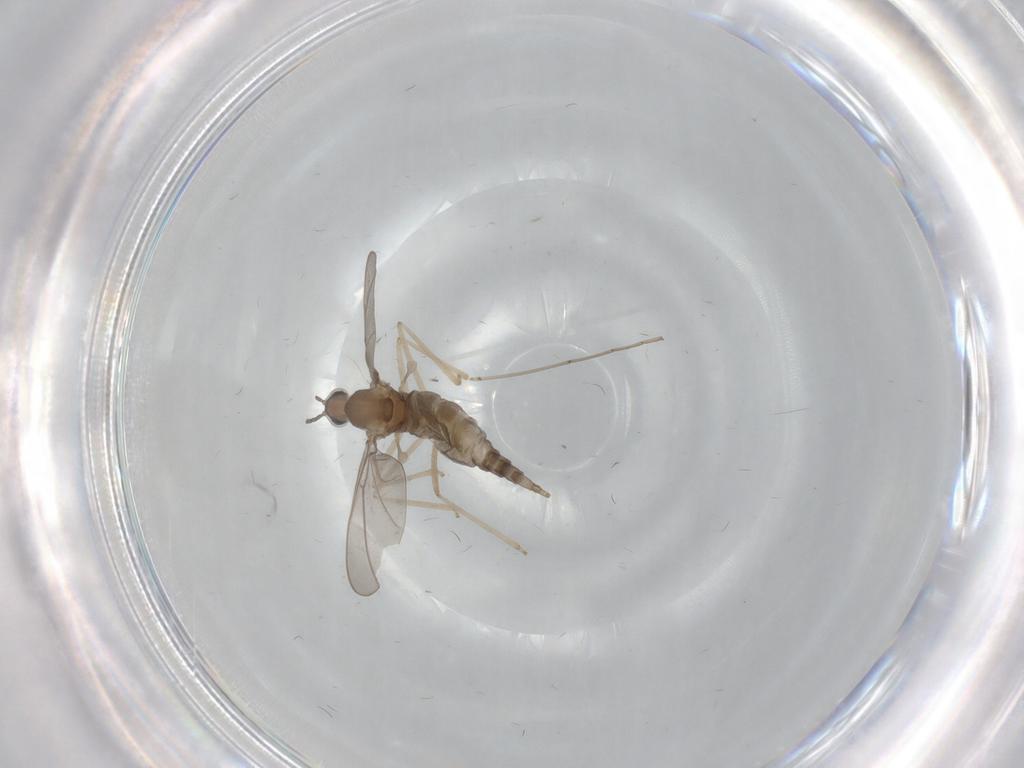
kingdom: Animalia
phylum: Arthropoda
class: Insecta
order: Diptera
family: Cecidomyiidae
